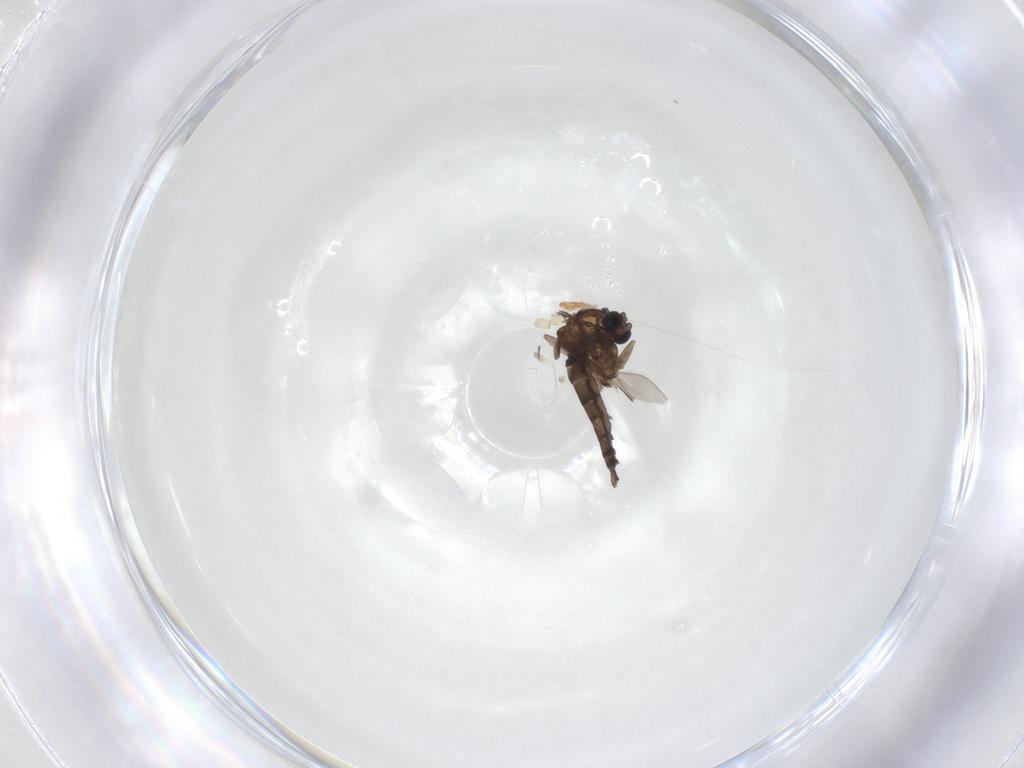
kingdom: Animalia
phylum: Arthropoda
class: Insecta
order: Diptera
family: Sciaridae
